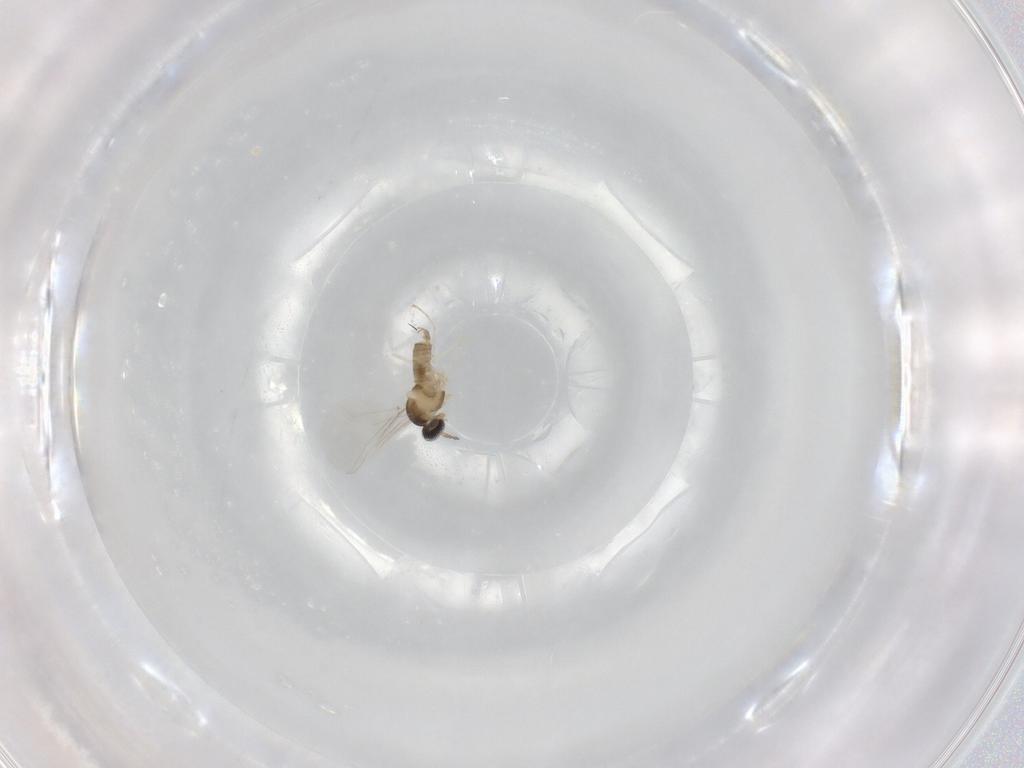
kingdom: Animalia
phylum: Arthropoda
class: Insecta
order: Diptera
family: Cecidomyiidae
